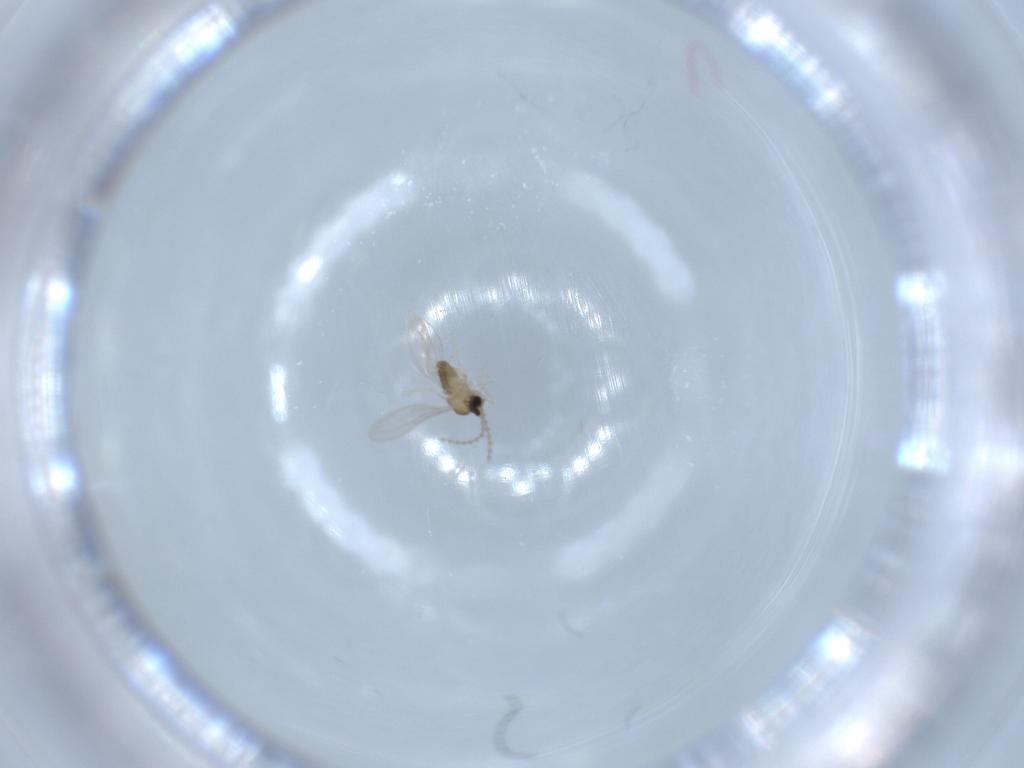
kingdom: Animalia
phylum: Arthropoda
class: Insecta
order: Diptera
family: Cecidomyiidae
